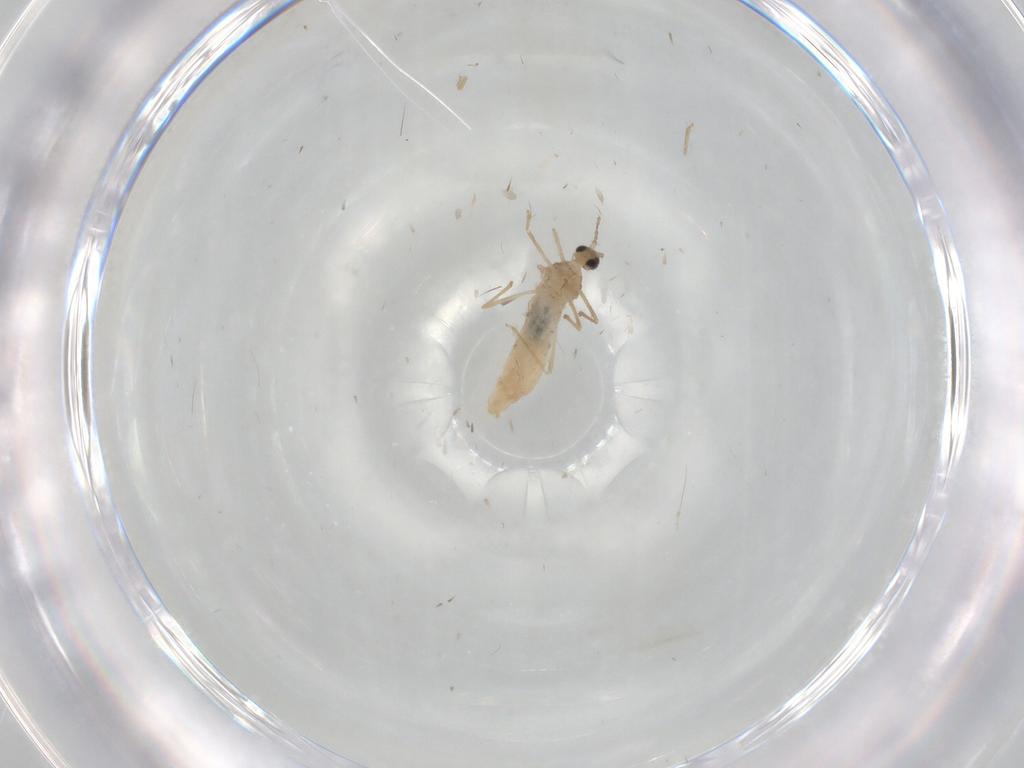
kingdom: Animalia
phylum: Arthropoda
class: Insecta
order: Diptera
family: Cecidomyiidae
